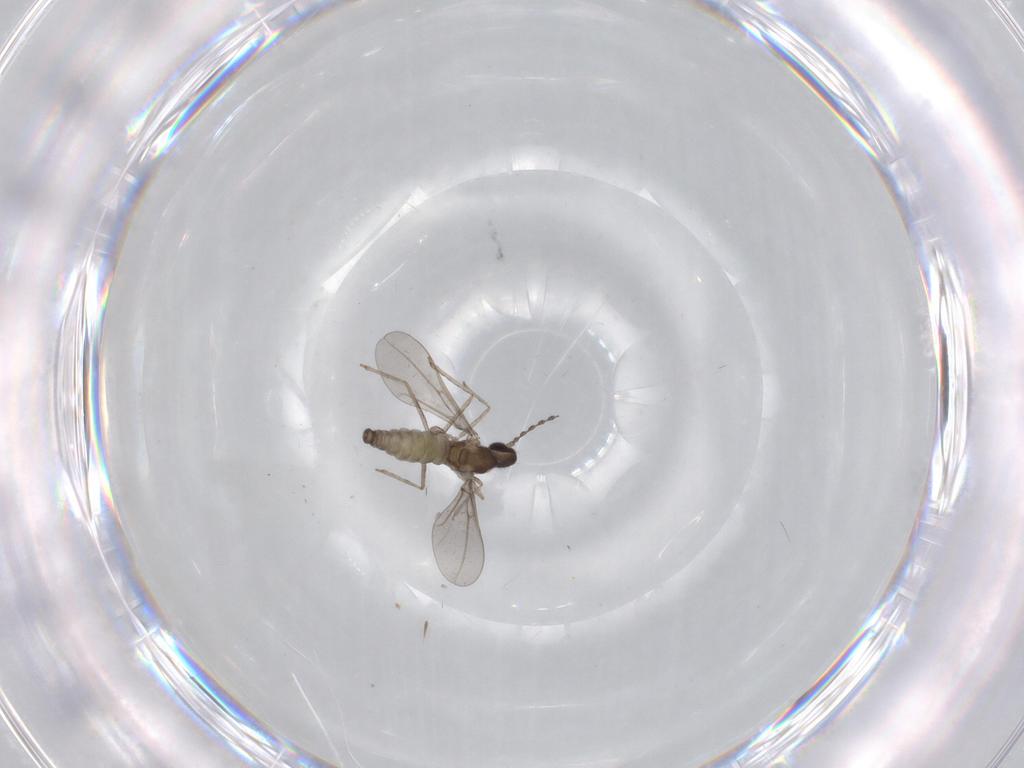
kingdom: Animalia
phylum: Arthropoda
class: Insecta
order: Diptera
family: Cecidomyiidae
